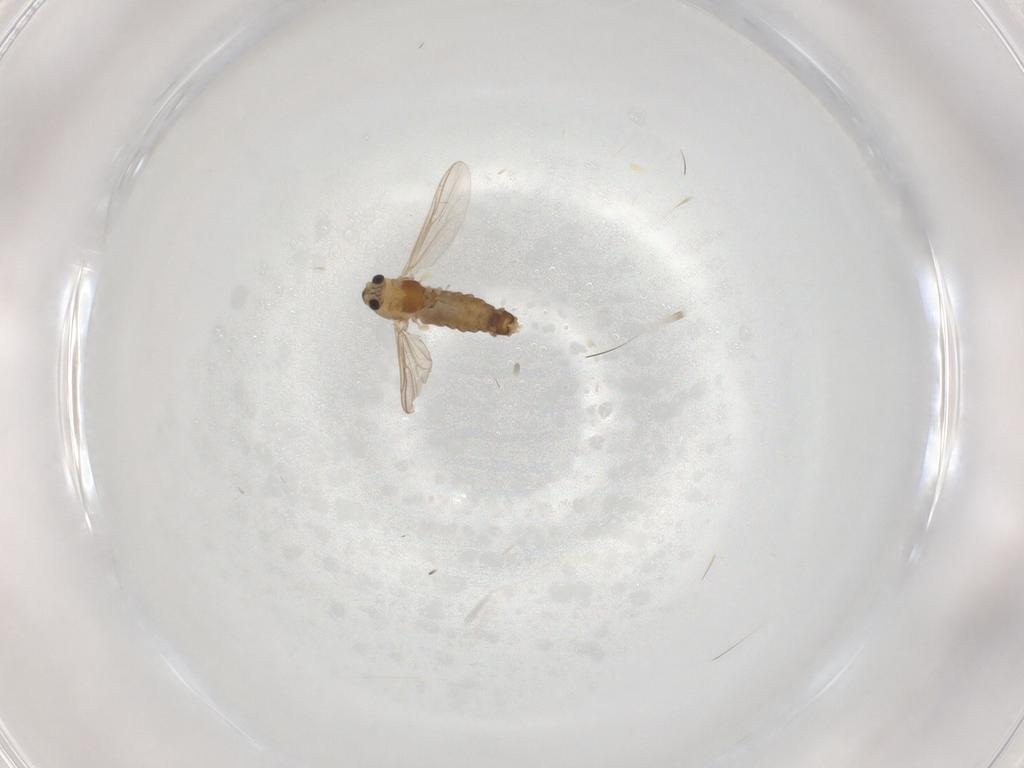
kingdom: Animalia
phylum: Arthropoda
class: Insecta
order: Diptera
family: Chironomidae
